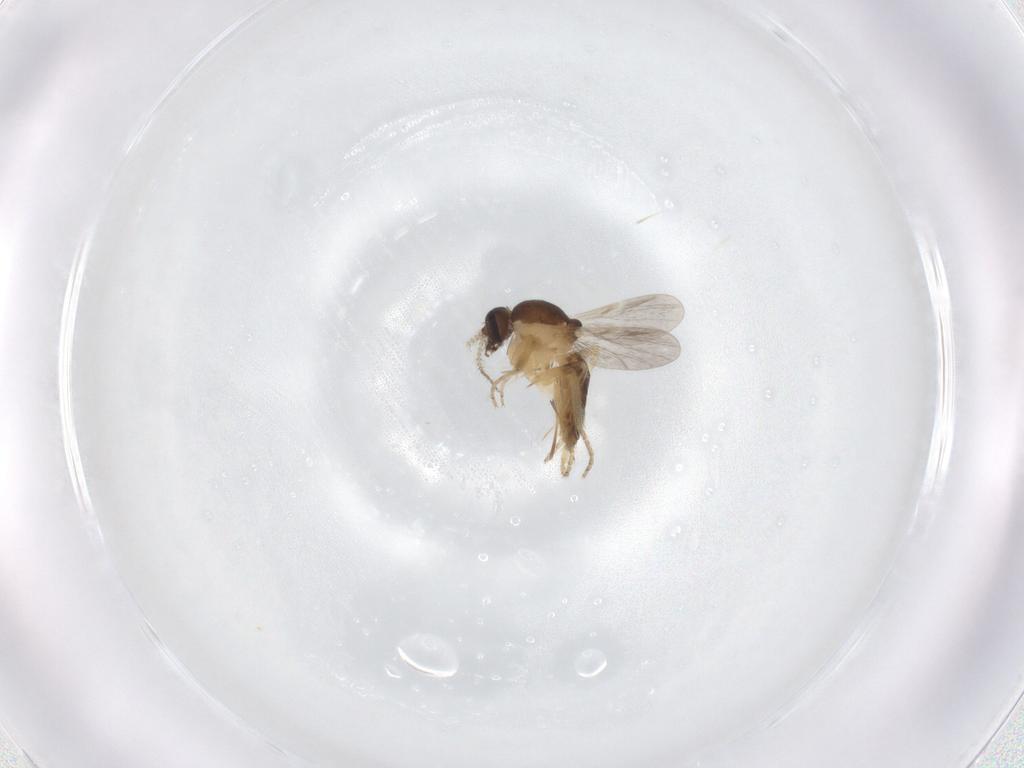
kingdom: Animalia
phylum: Arthropoda
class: Insecta
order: Diptera
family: Ceratopogonidae
